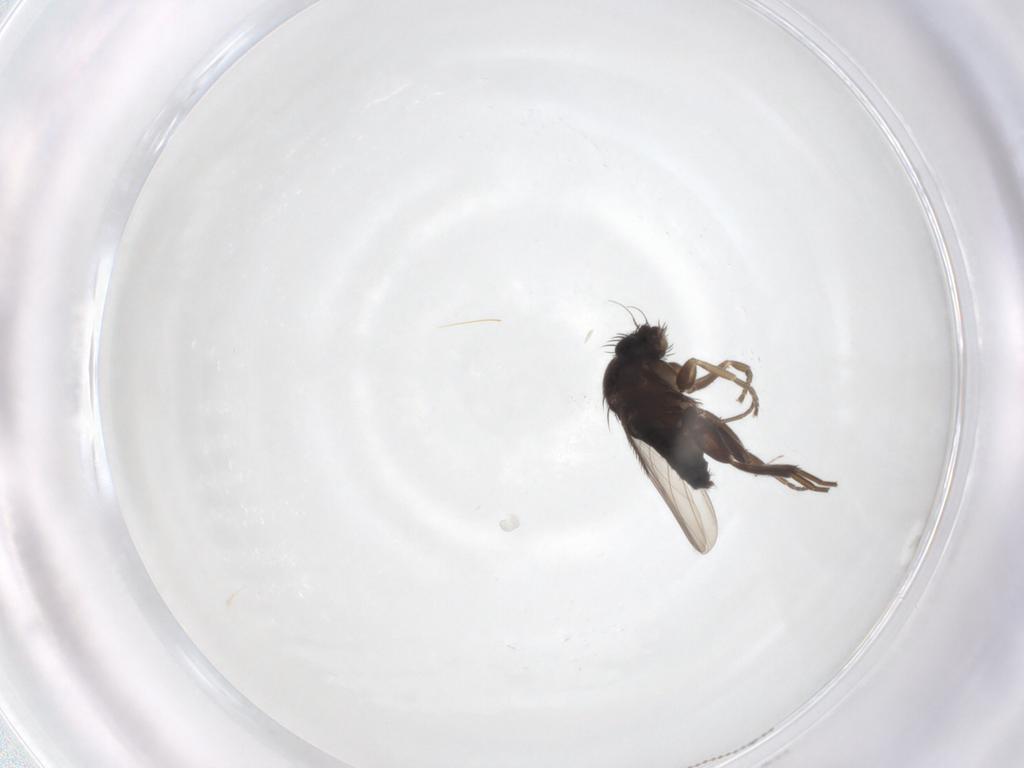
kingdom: Animalia
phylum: Arthropoda
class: Insecta
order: Diptera
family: Phoridae
